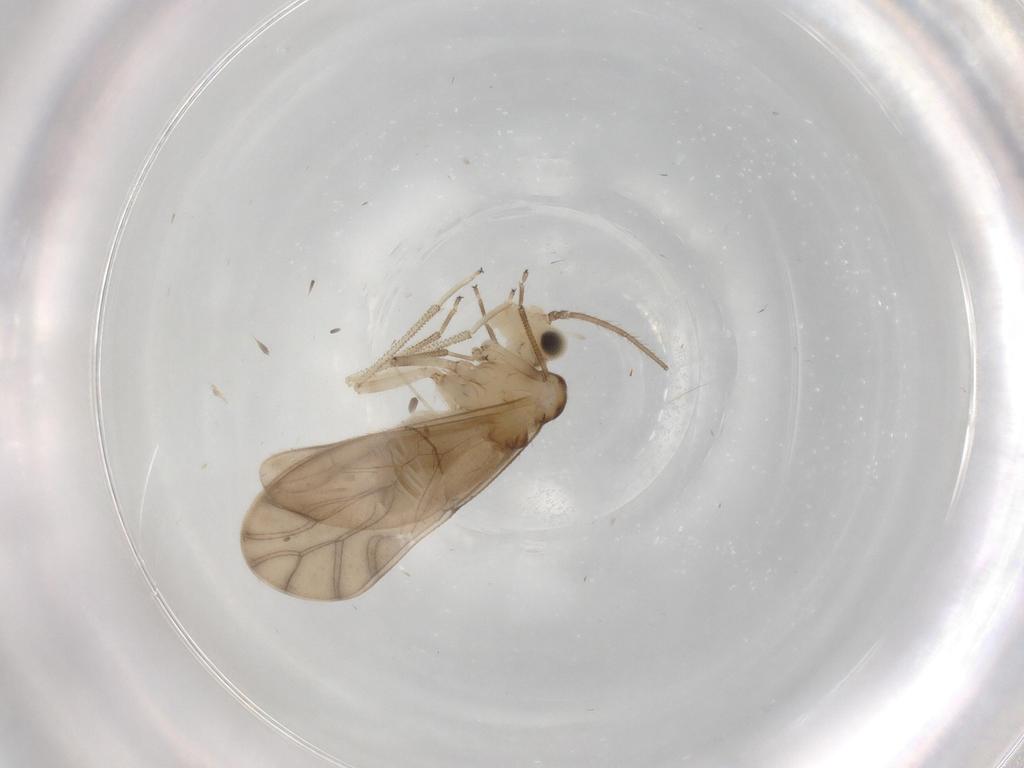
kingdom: Animalia
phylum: Arthropoda
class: Insecta
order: Psocodea
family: Caeciliusidae
